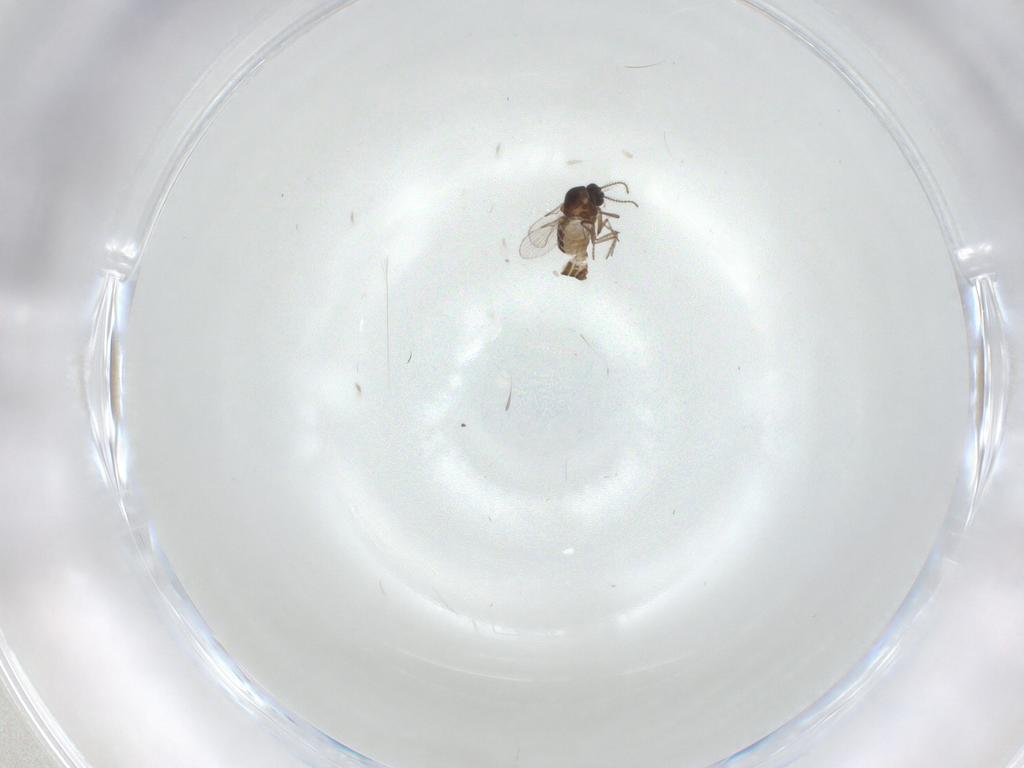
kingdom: Animalia
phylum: Arthropoda
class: Insecta
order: Diptera
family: Ceratopogonidae
